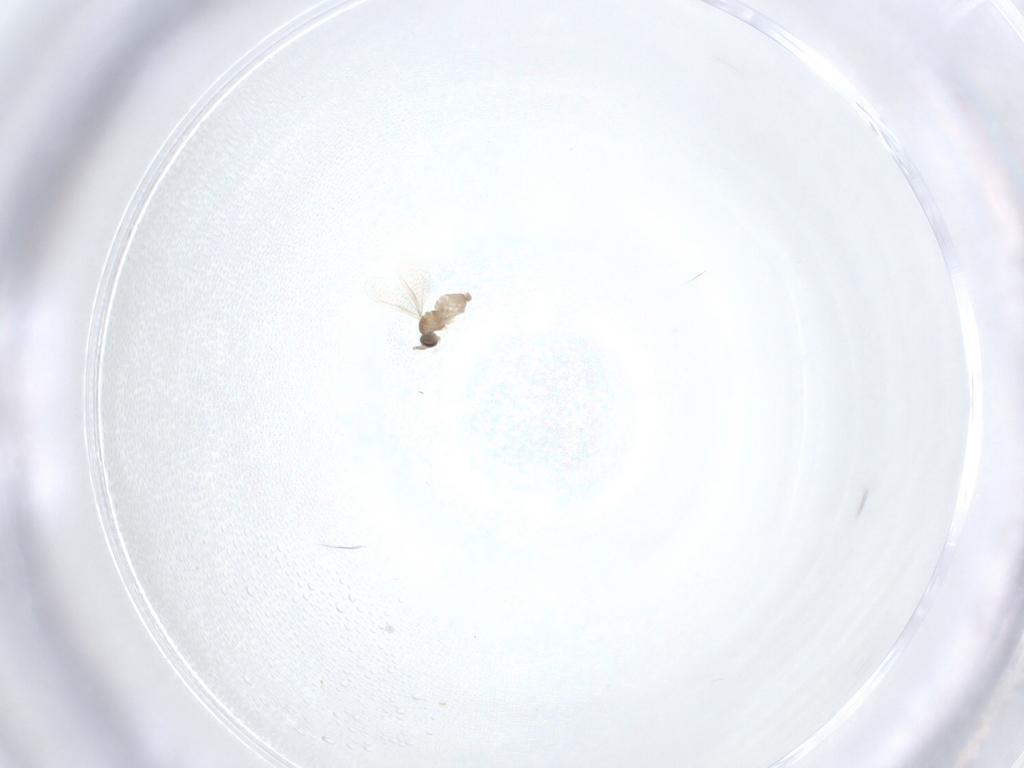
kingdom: Animalia
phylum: Arthropoda
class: Insecta
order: Diptera
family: Cecidomyiidae
